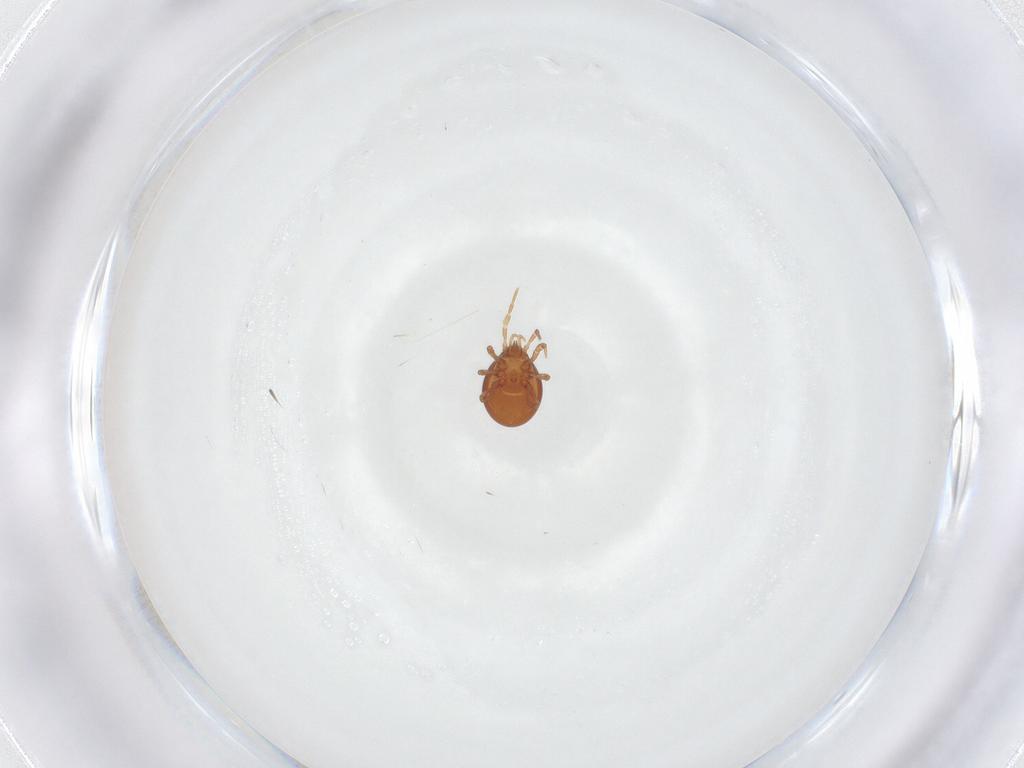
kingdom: Animalia
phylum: Arthropoda
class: Arachnida
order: Mesostigmata
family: Parasitidae
